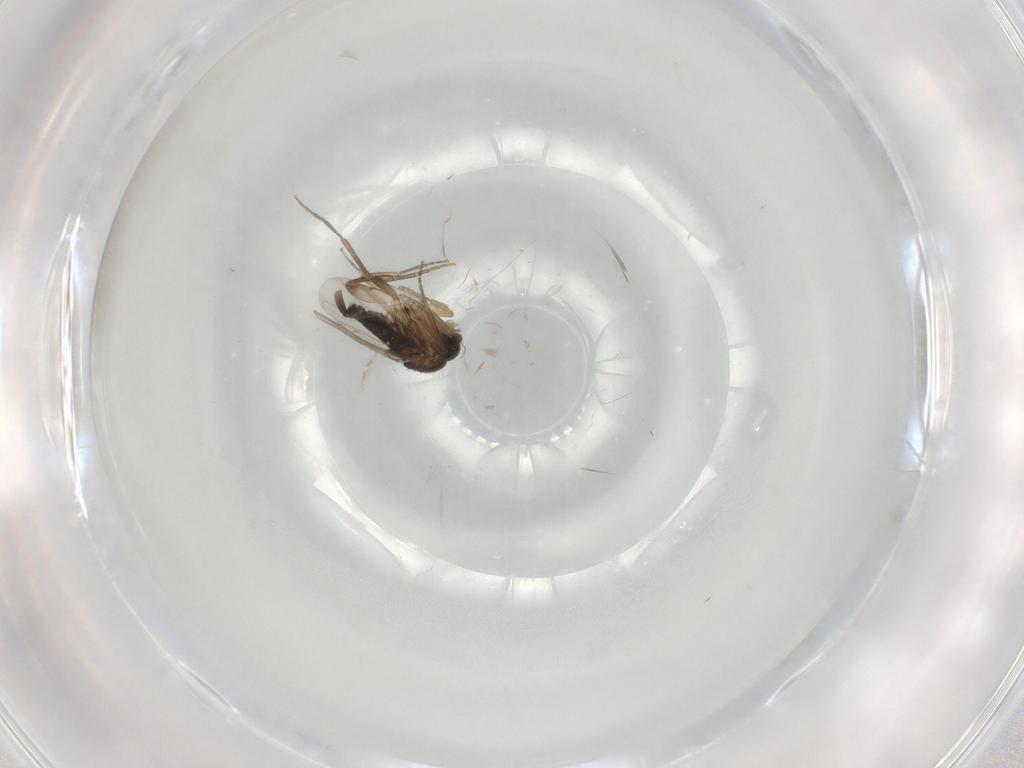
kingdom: Animalia
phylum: Arthropoda
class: Insecta
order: Diptera
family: Phoridae
